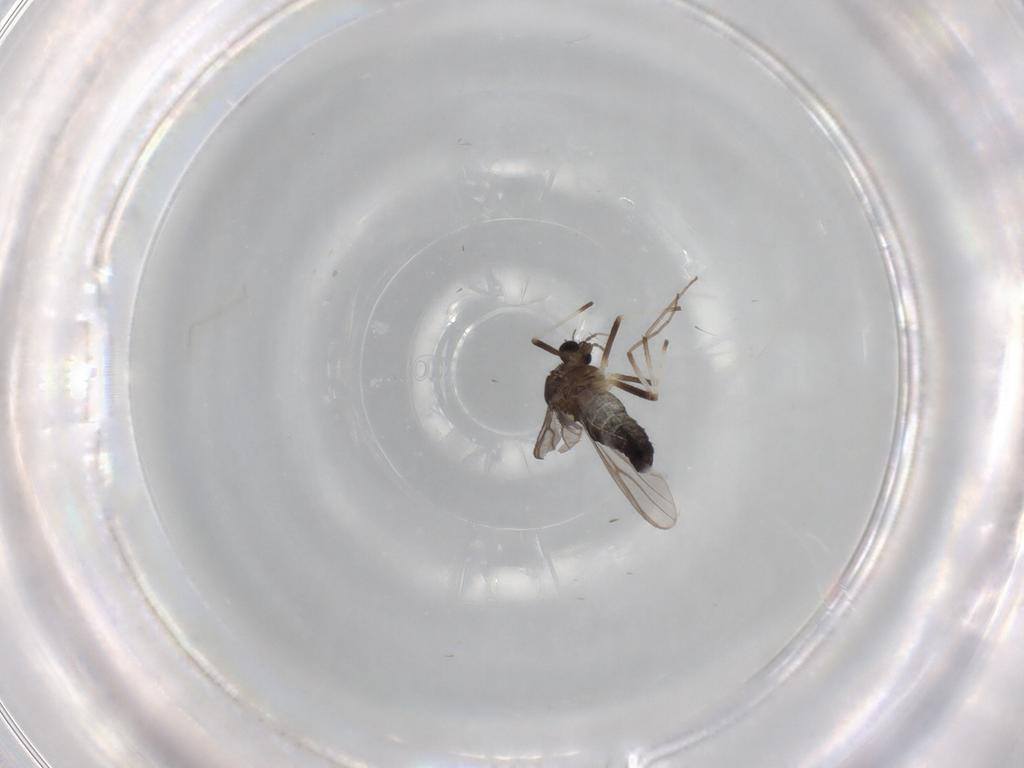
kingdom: Animalia
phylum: Arthropoda
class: Insecta
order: Diptera
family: Chironomidae
